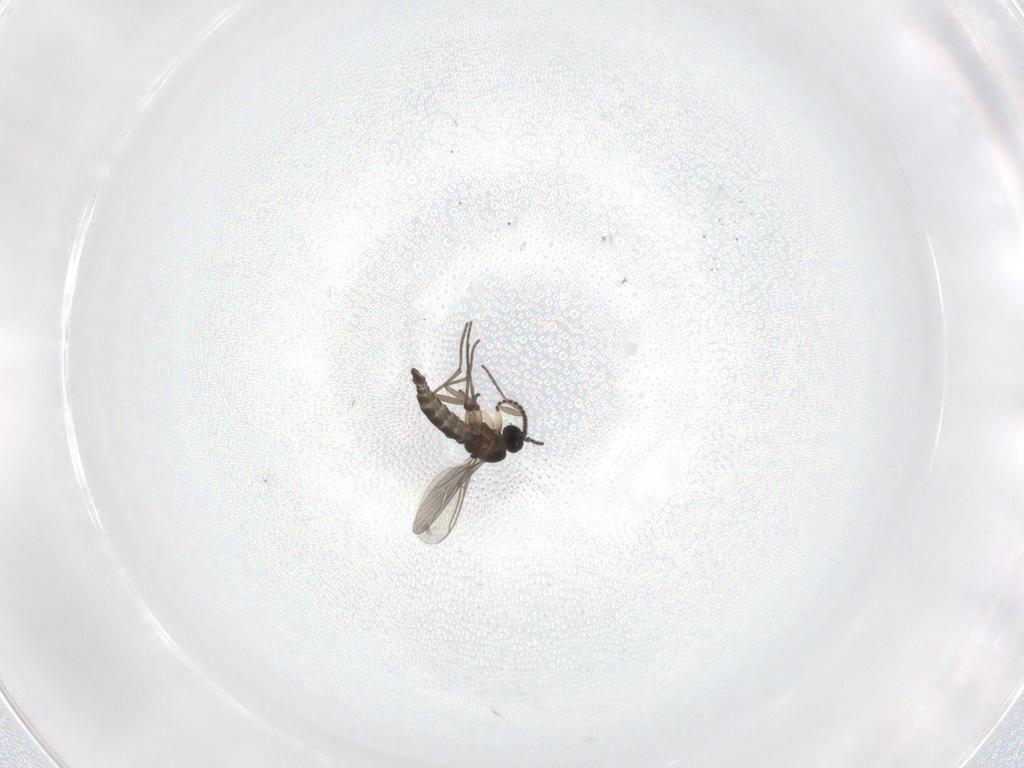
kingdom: Animalia
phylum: Arthropoda
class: Insecta
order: Diptera
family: Sciaridae
